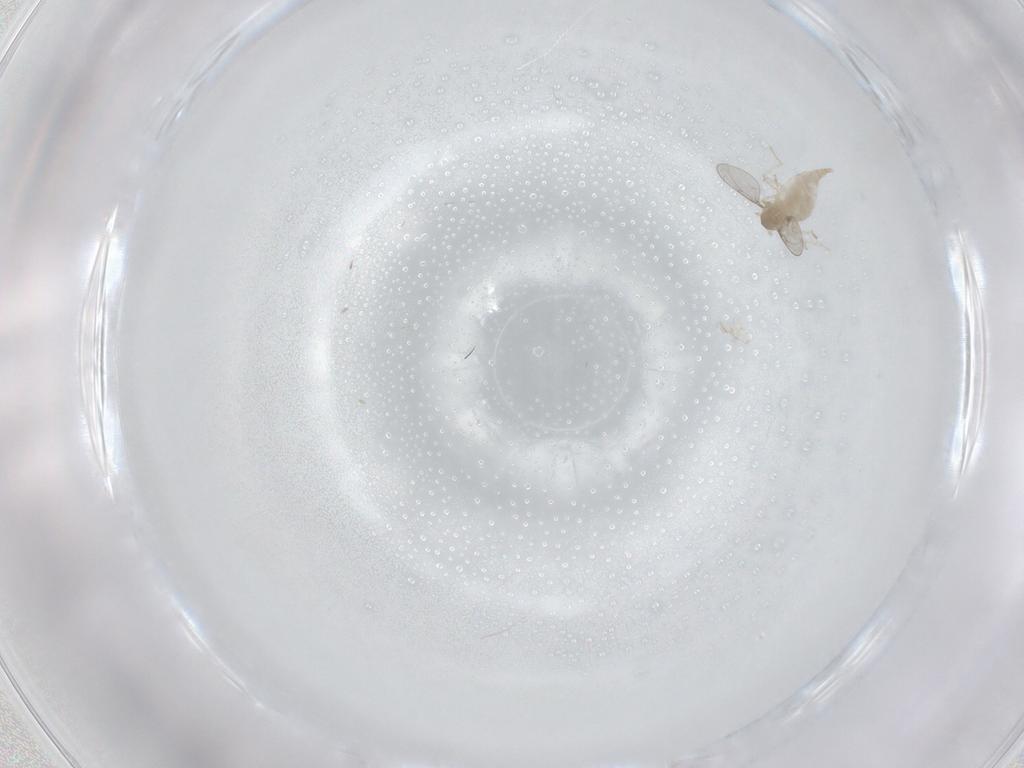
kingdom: Animalia
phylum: Arthropoda
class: Insecta
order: Diptera
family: Cecidomyiidae
